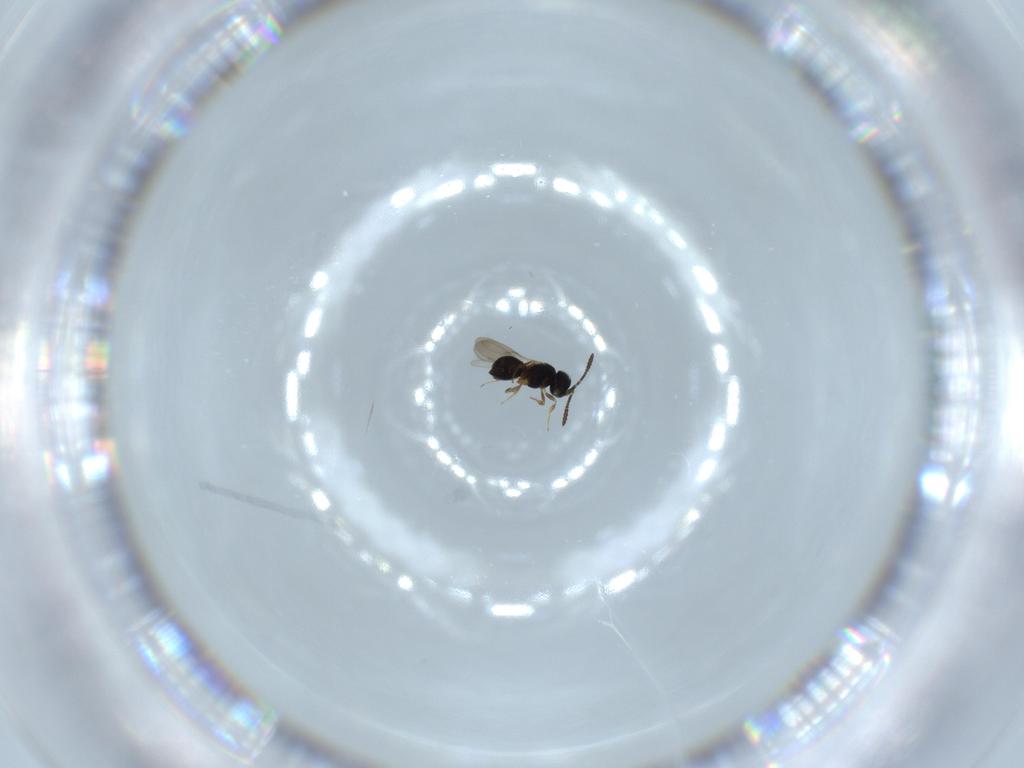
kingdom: Animalia
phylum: Arthropoda
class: Insecta
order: Hymenoptera
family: Scelionidae
